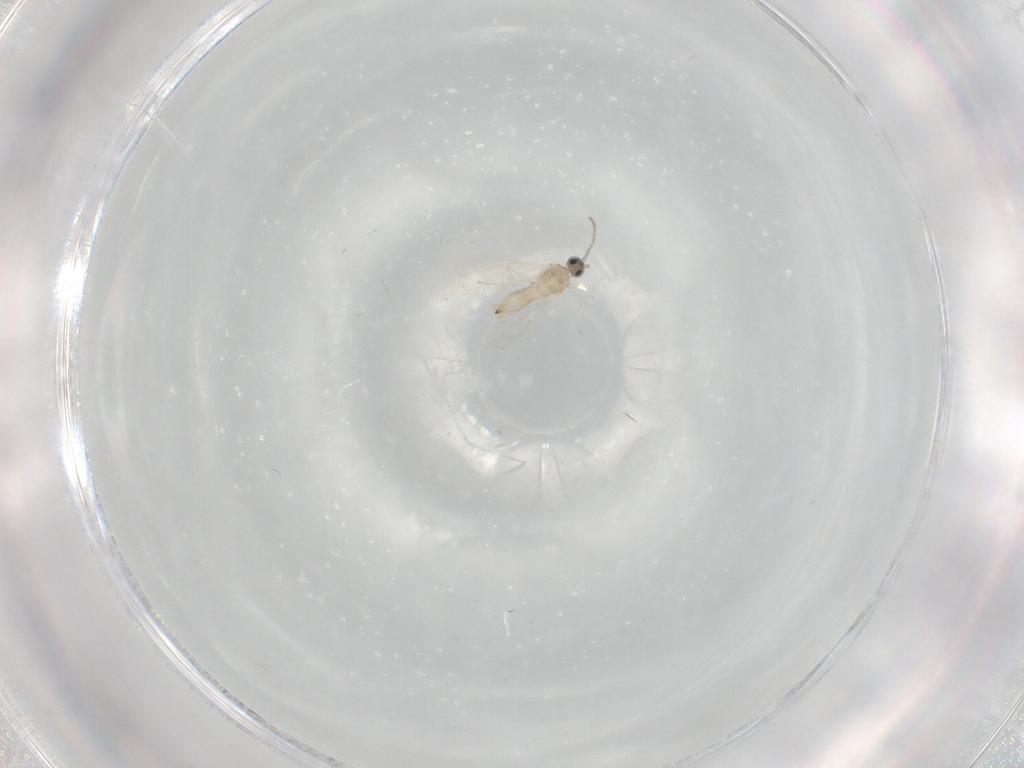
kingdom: Animalia
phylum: Arthropoda
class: Insecta
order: Diptera
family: Cecidomyiidae
